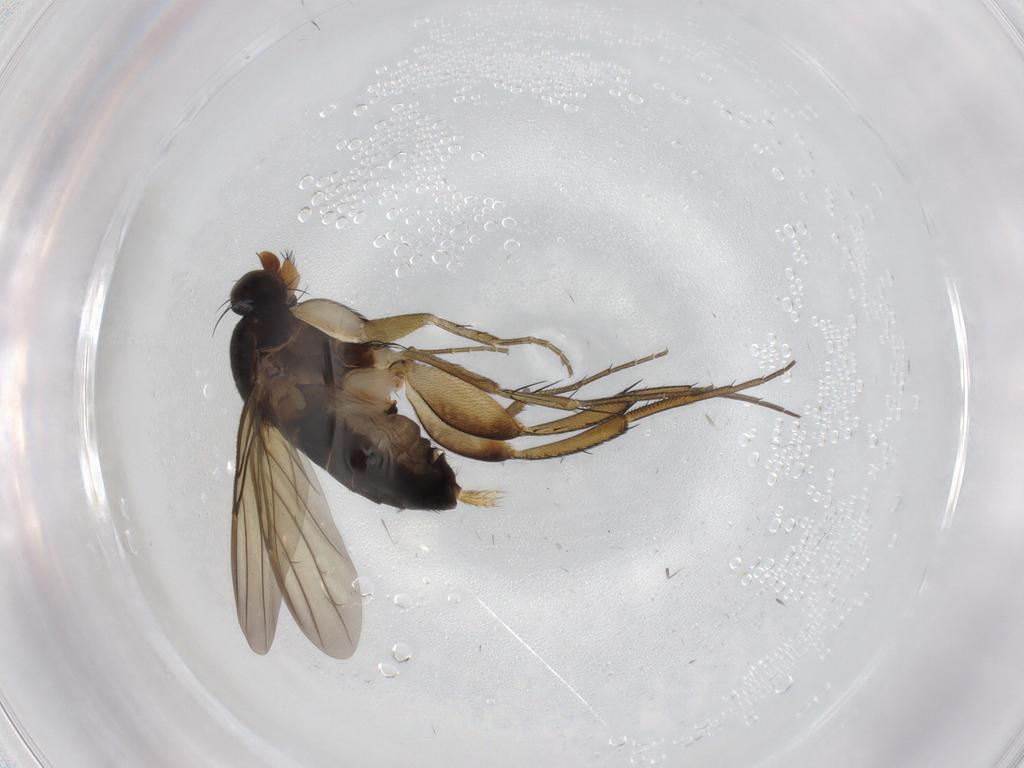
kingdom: Animalia
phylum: Arthropoda
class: Insecta
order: Diptera
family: Phoridae
